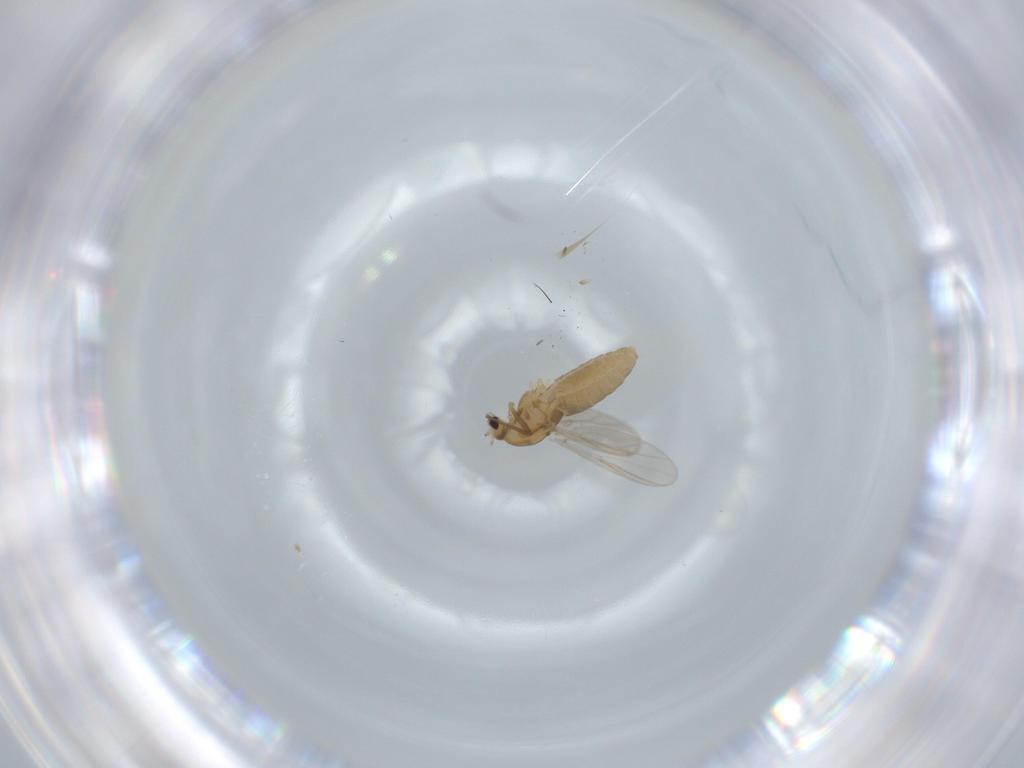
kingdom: Animalia
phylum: Arthropoda
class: Insecta
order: Diptera
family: Chironomidae
